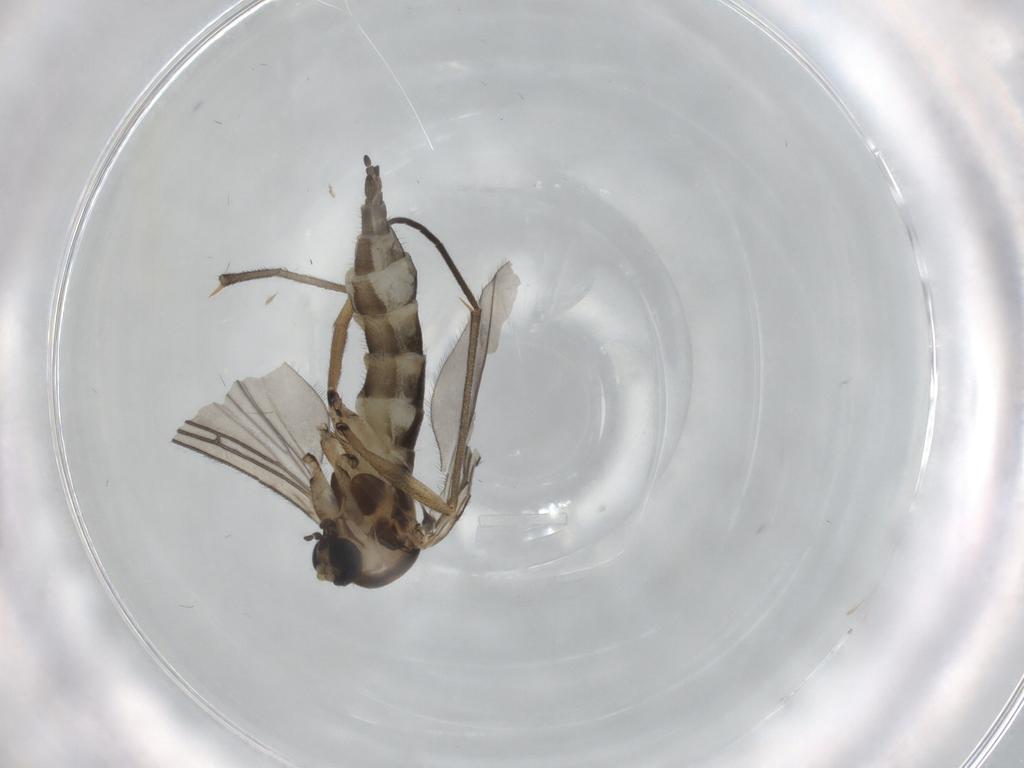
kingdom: Animalia
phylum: Arthropoda
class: Insecta
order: Diptera
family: Sciaridae
